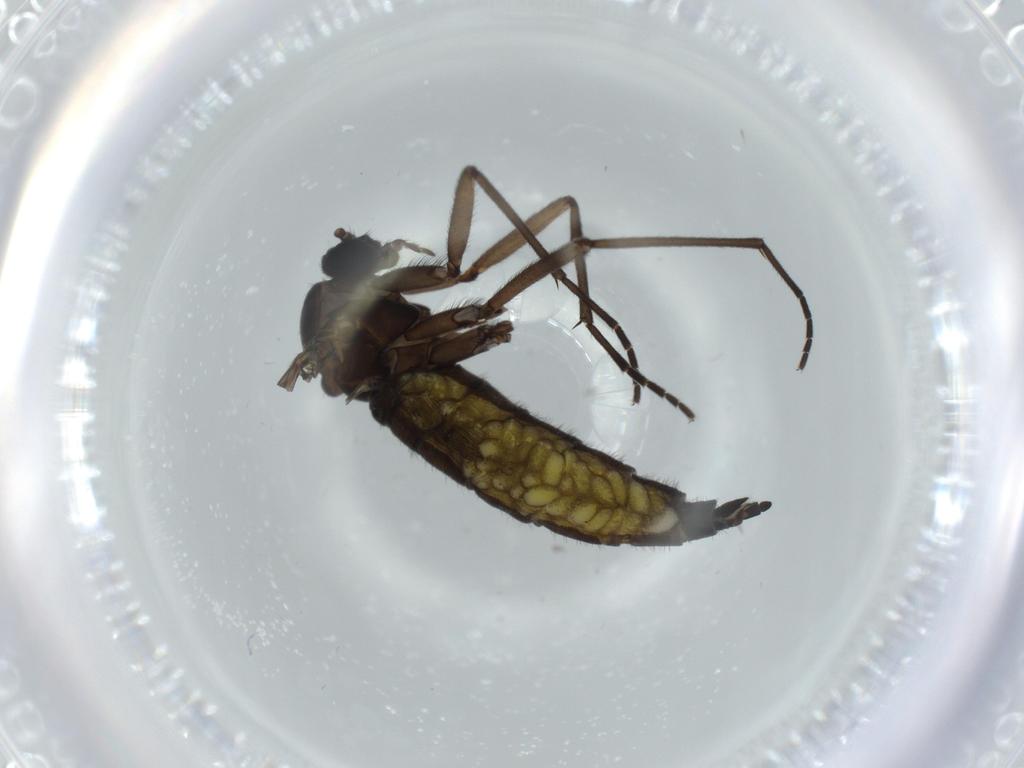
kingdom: Animalia
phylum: Arthropoda
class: Insecta
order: Diptera
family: Sciaridae
